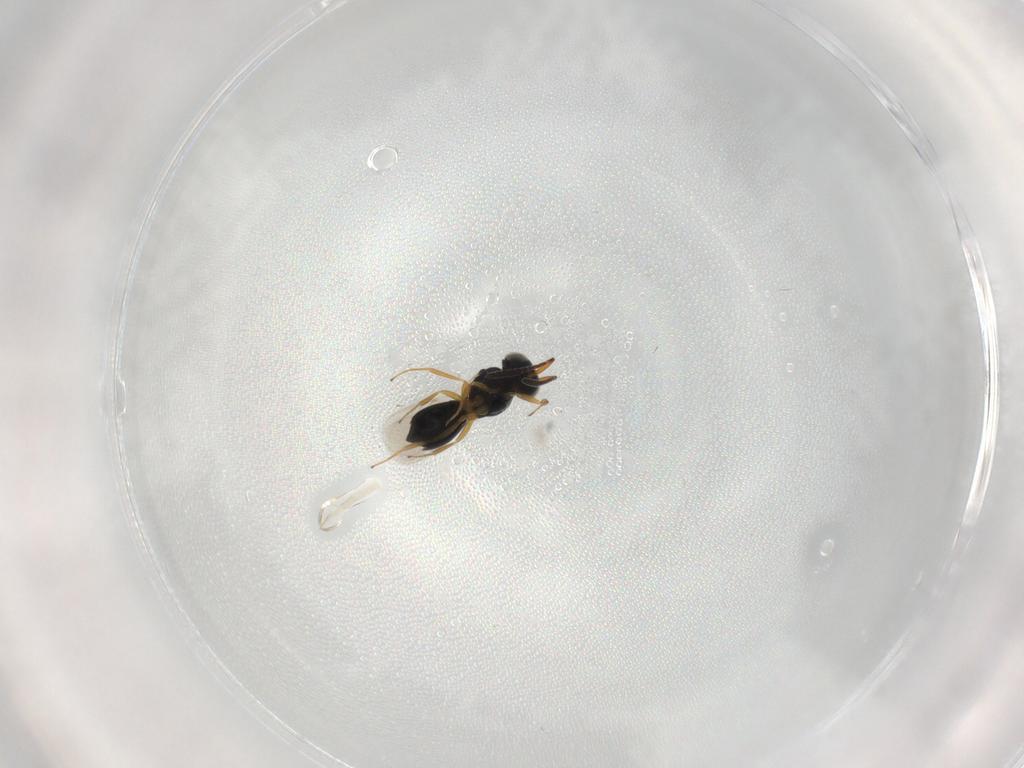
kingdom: Animalia
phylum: Arthropoda
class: Insecta
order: Hymenoptera
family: Scelionidae
